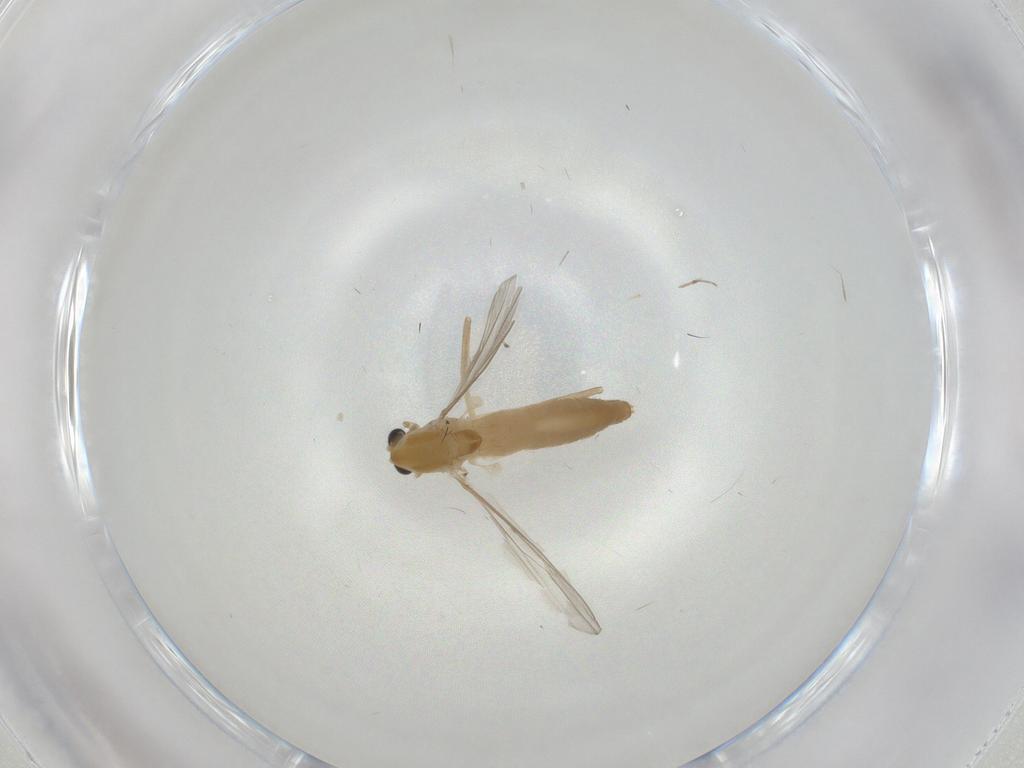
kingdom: Animalia
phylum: Arthropoda
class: Insecta
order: Diptera
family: Chironomidae
